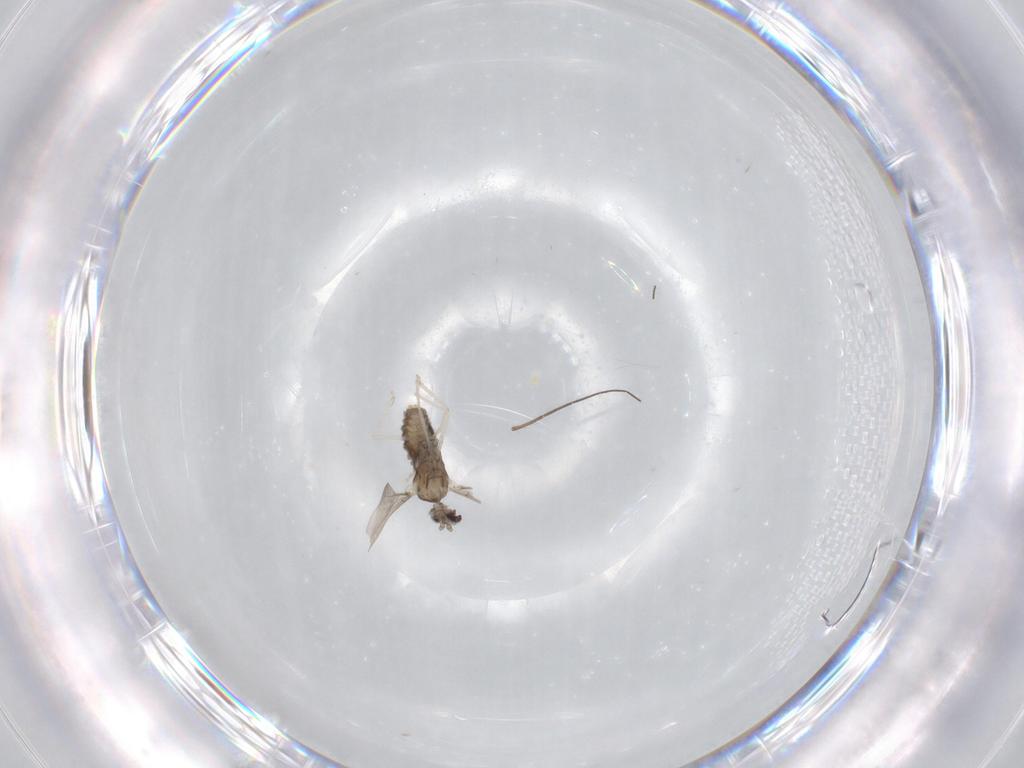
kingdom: Animalia
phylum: Arthropoda
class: Insecta
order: Diptera
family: Cecidomyiidae
